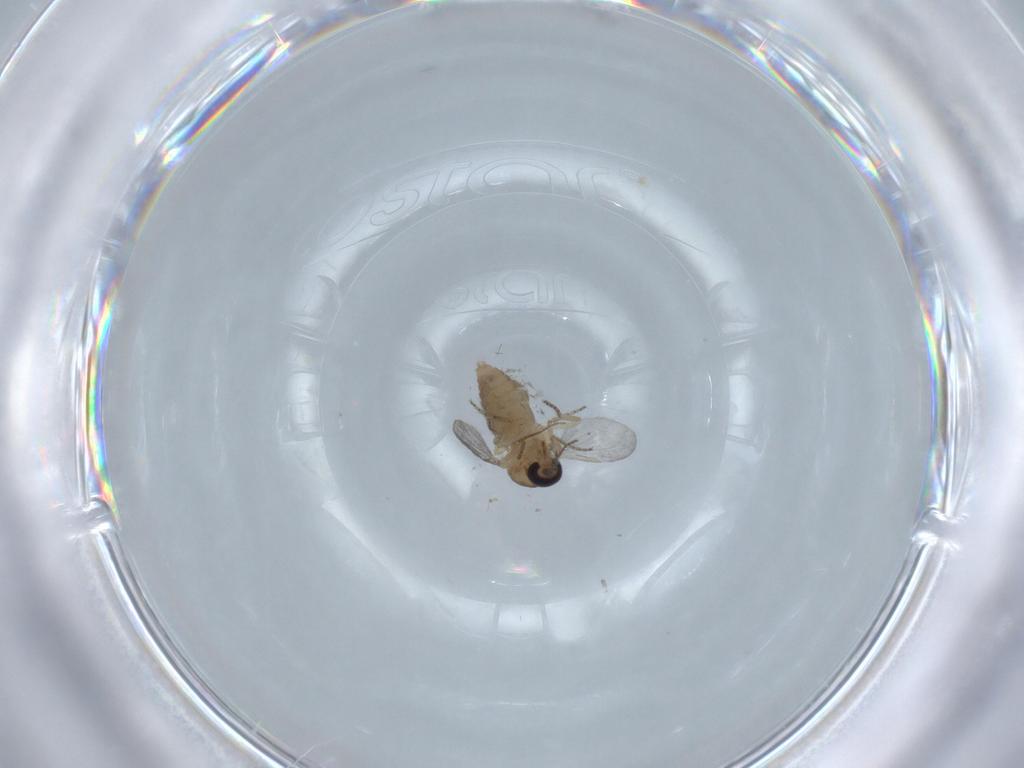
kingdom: Animalia
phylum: Arthropoda
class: Insecta
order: Diptera
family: Ceratopogonidae
